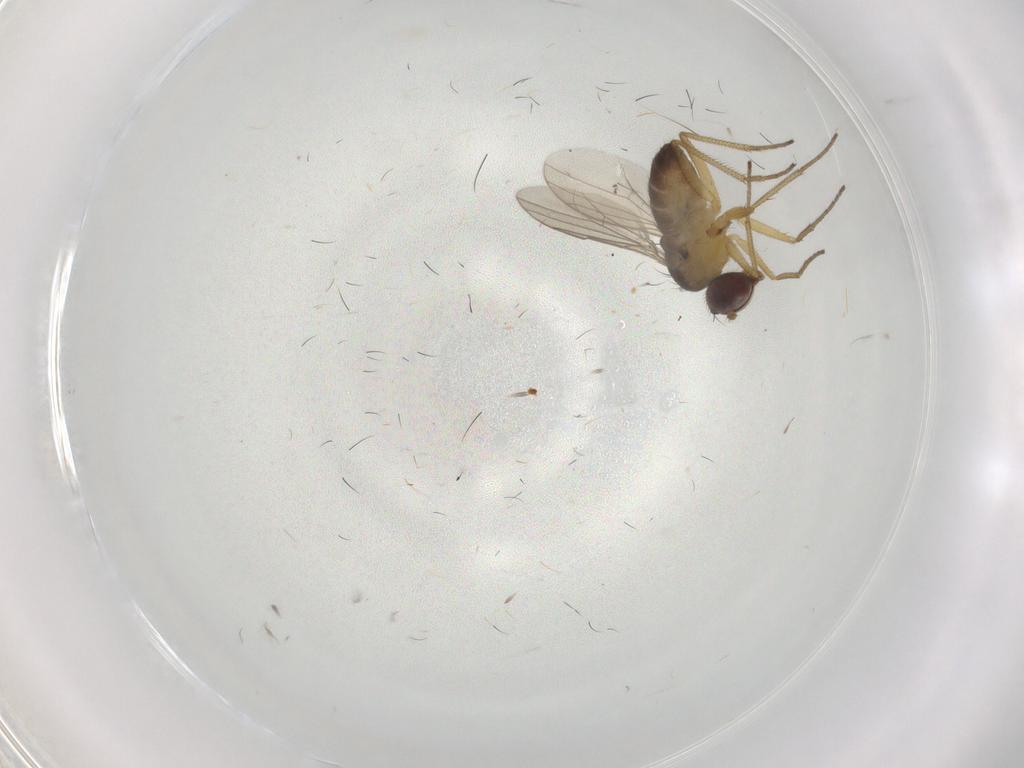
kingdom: Animalia
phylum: Arthropoda
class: Insecta
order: Diptera
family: Dolichopodidae
